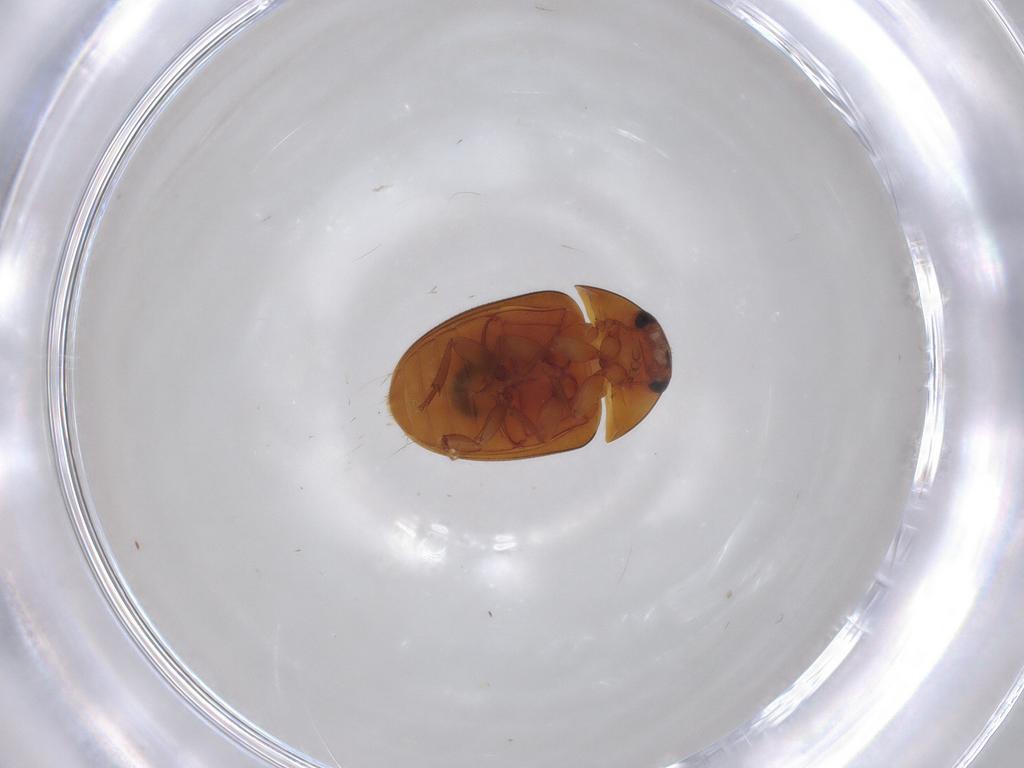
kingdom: Animalia
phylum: Arthropoda
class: Insecta
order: Coleoptera
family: Phalacridae
